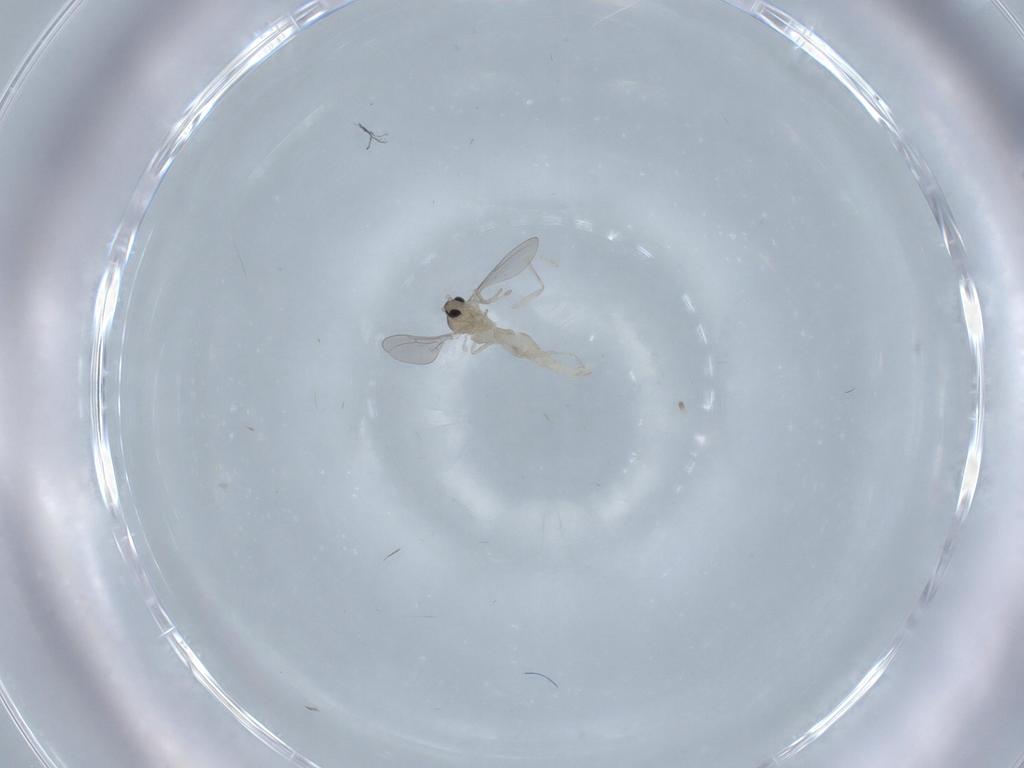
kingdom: Animalia
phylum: Arthropoda
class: Insecta
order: Diptera
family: Cecidomyiidae
